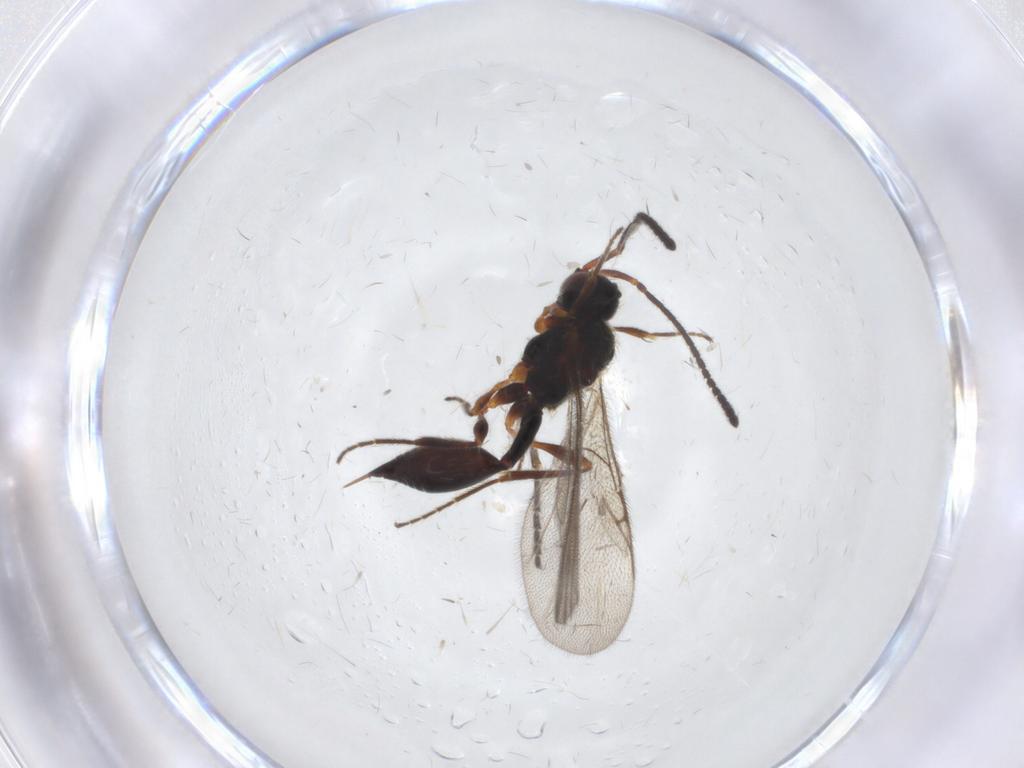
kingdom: Animalia
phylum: Arthropoda
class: Insecta
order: Hymenoptera
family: Diapriidae
